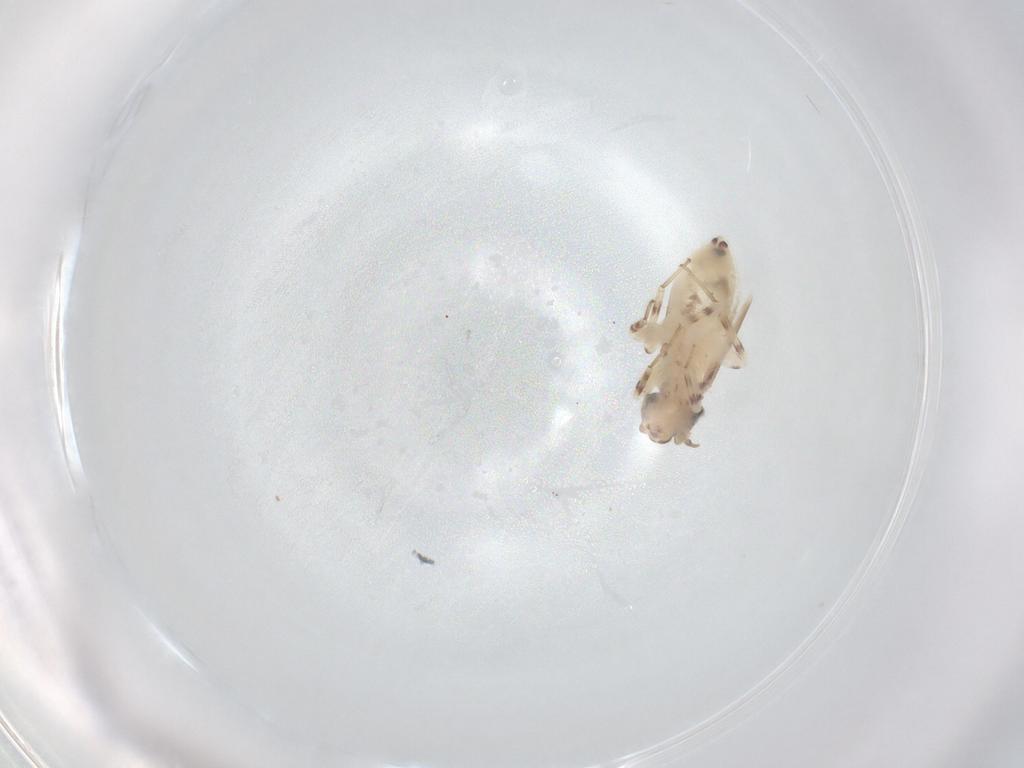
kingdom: Animalia
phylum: Arthropoda
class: Insecta
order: Psocodea
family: Lepidopsocidae
